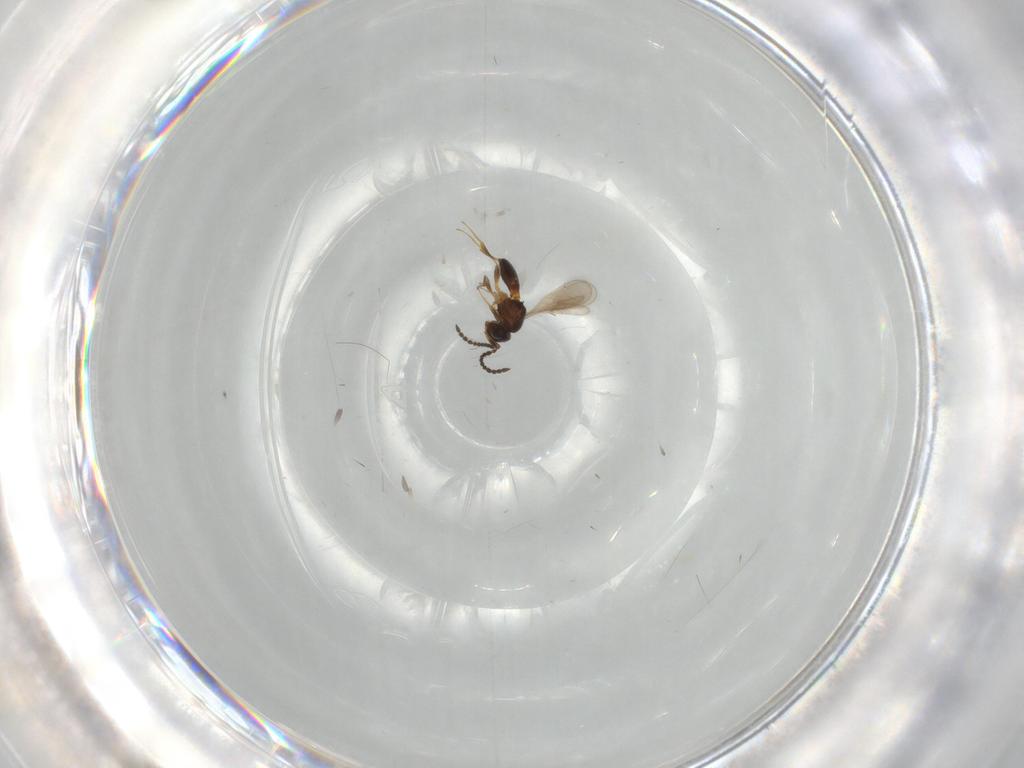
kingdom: Animalia
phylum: Arthropoda
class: Insecta
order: Hymenoptera
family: Scelionidae
